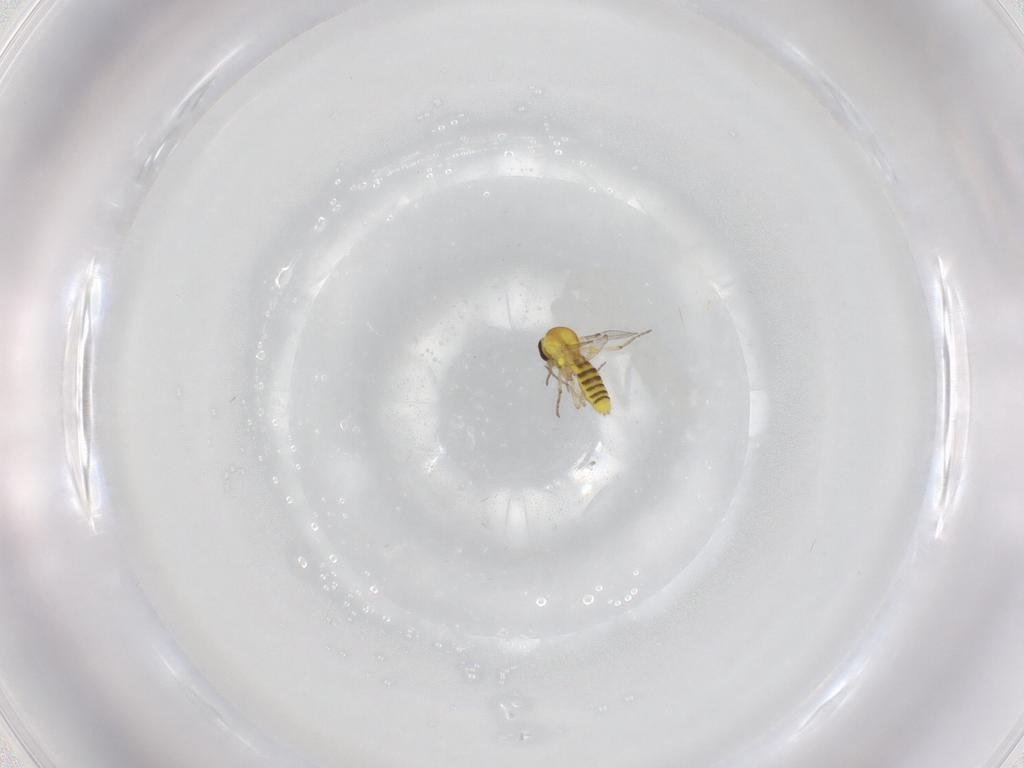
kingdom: Animalia
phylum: Arthropoda
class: Insecta
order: Diptera
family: Ceratopogonidae
